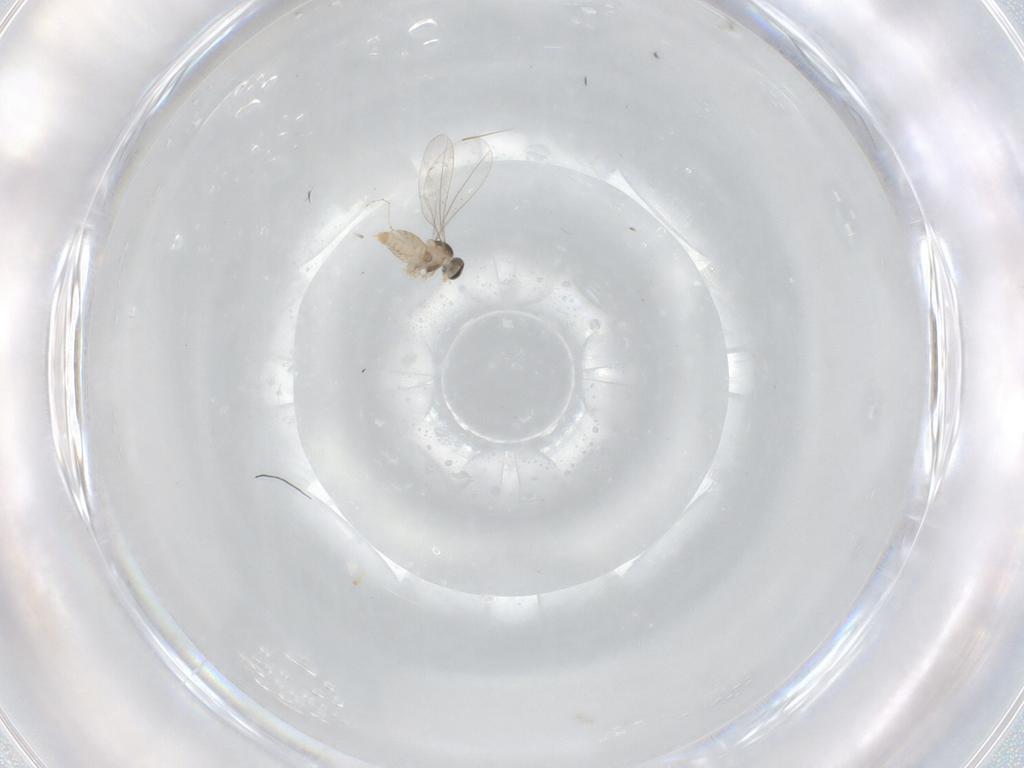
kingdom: Animalia
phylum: Arthropoda
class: Insecta
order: Diptera
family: Cecidomyiidae
